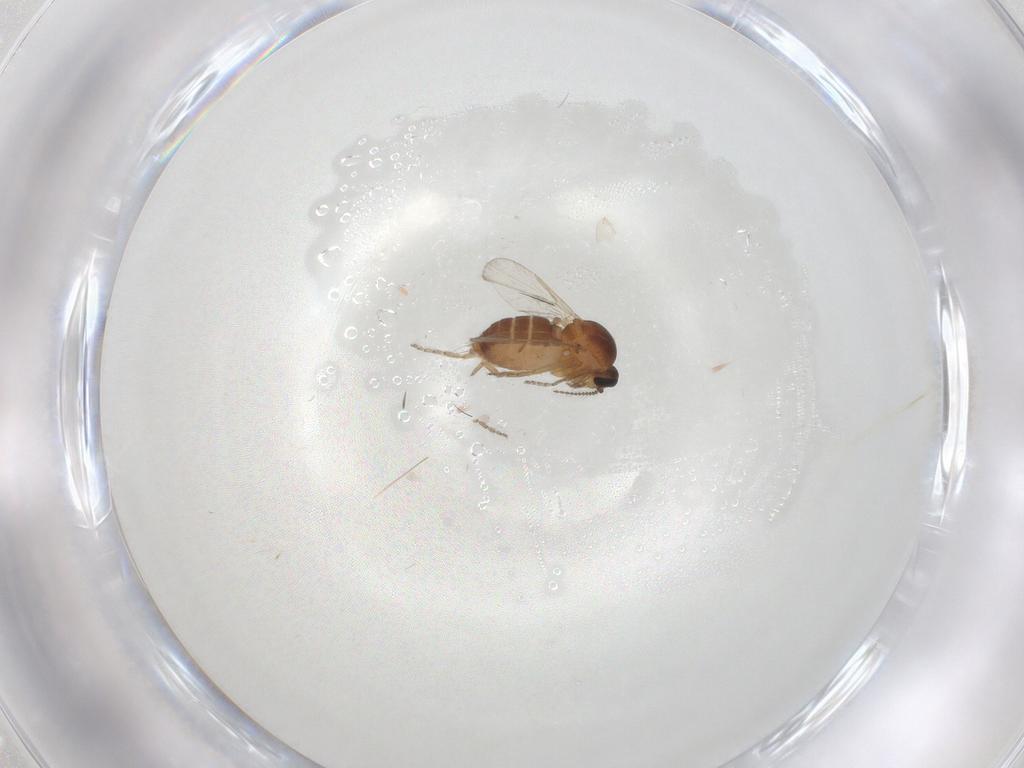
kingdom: Animalia
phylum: Arthropoda
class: Insecta
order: Diptera
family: Ceratopogonidae
